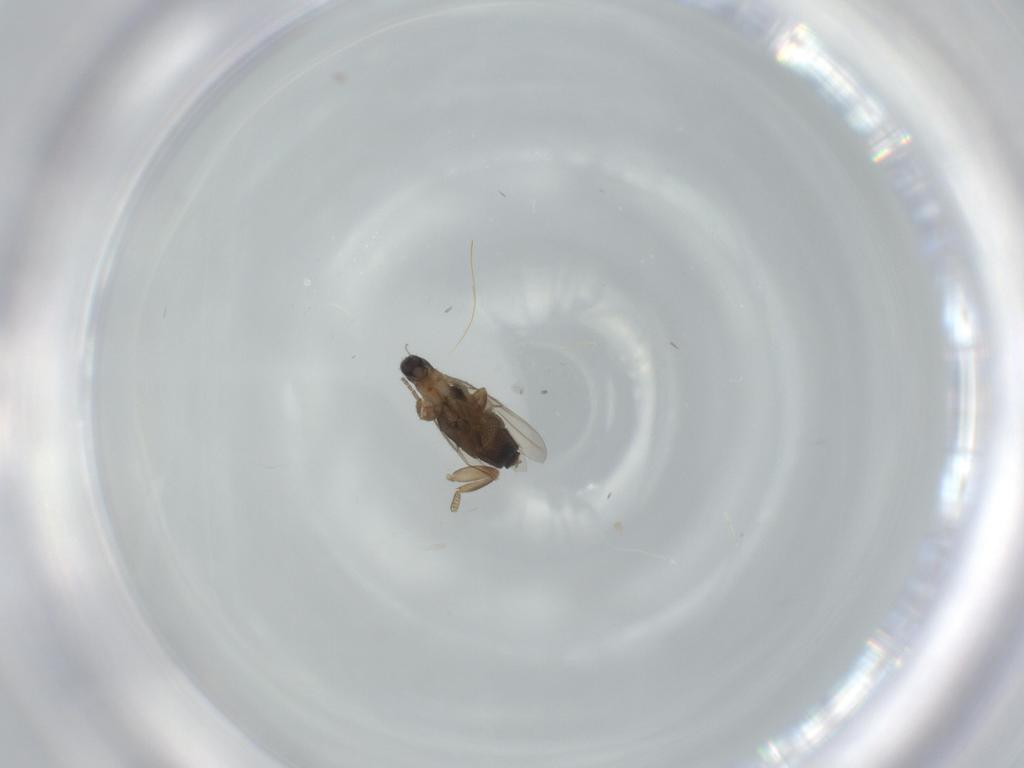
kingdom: Animalia
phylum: Arthropoda
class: Insecta
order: Diptera
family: Phoridae
